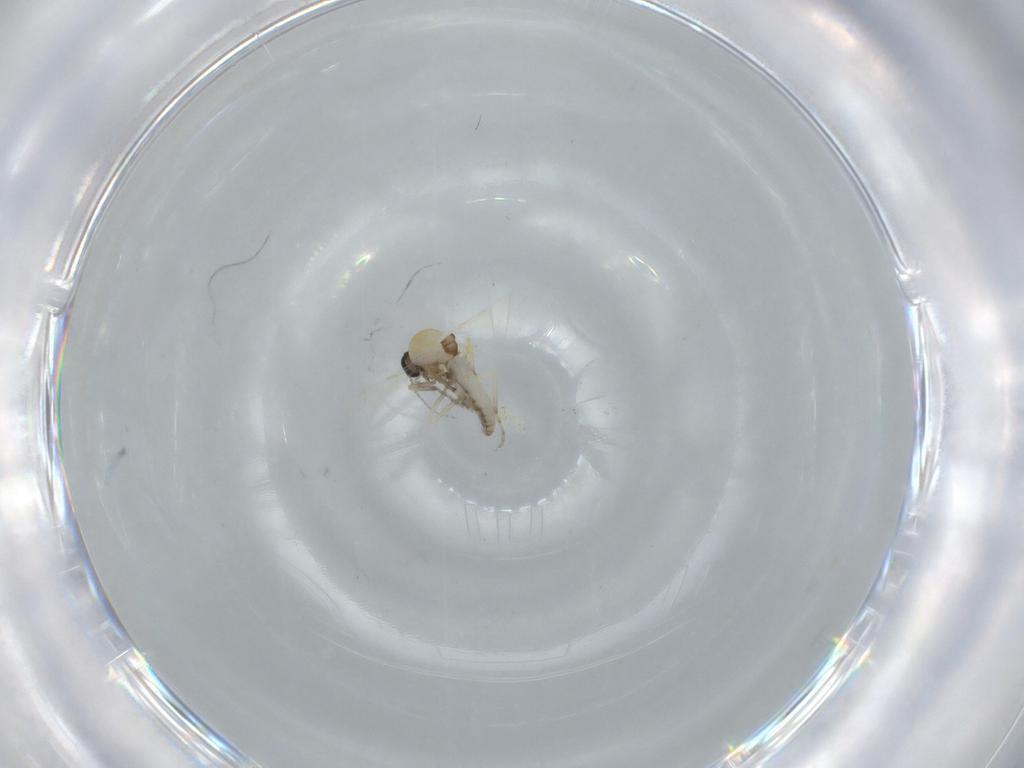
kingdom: Animalia
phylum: Arthropoda
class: Insecta
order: Diptera
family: Ceratopogonidae
